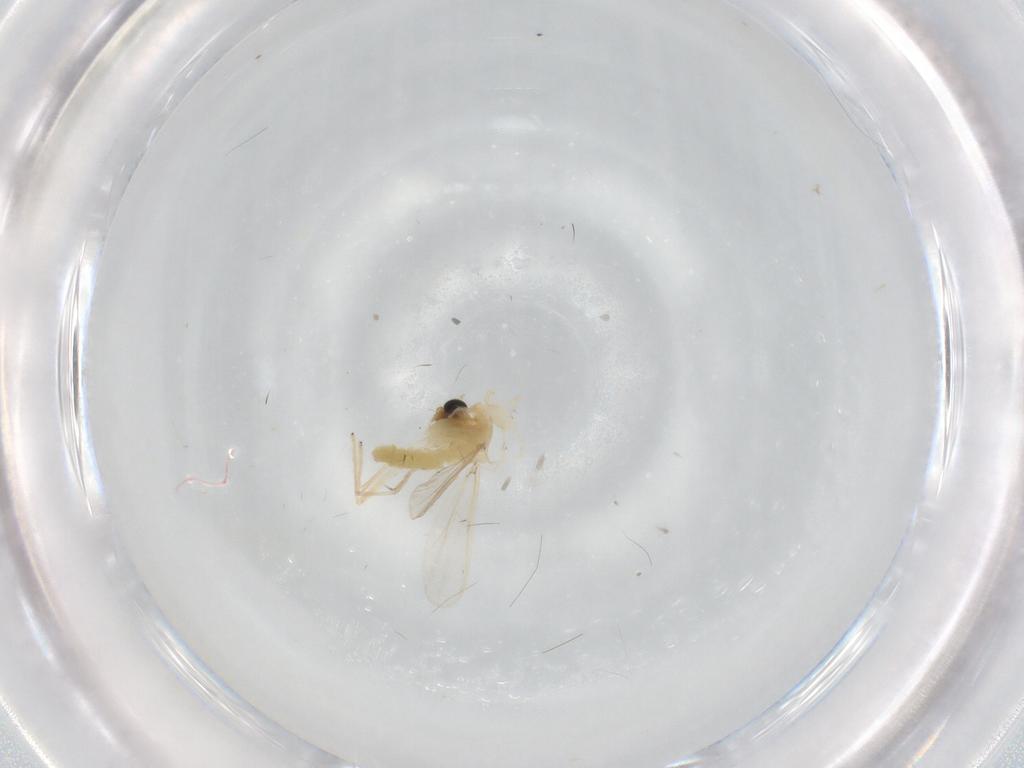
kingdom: Animalia
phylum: Arthropoda
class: Insecta
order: Diptera
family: Chironomidae
